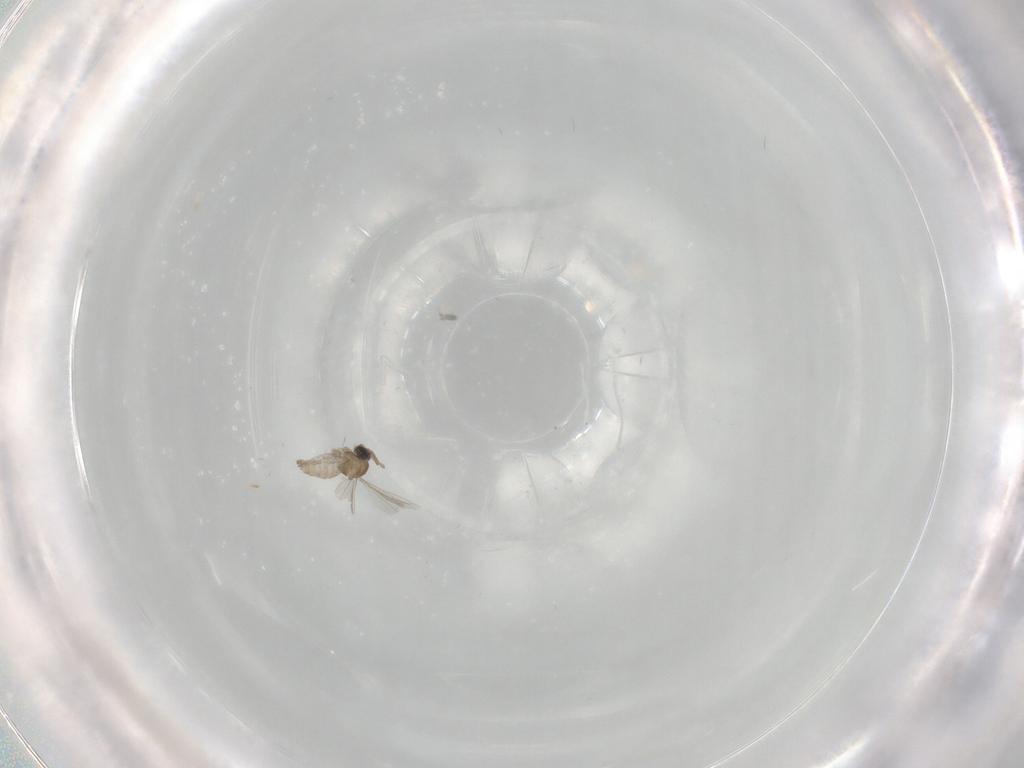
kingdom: Animalia
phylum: Arthropoda
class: Insecta
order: Diptera
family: Cecidomyiidae
